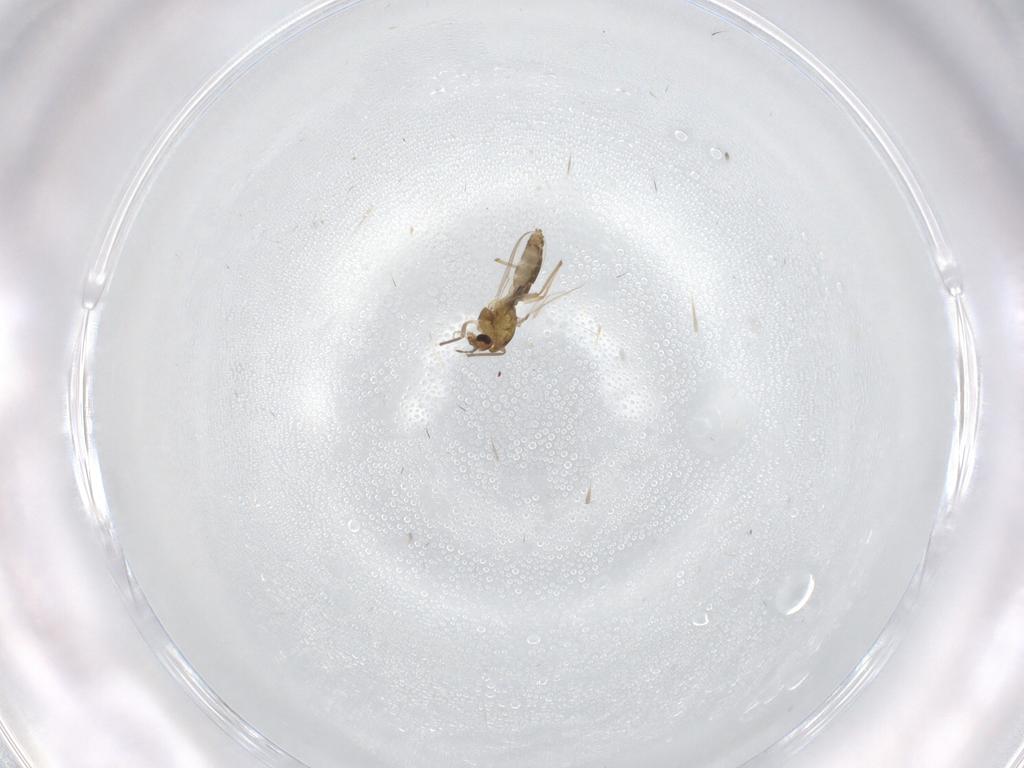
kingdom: Animalia
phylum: Arthropoda
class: Insecta
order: Diptera
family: Chironomidae
